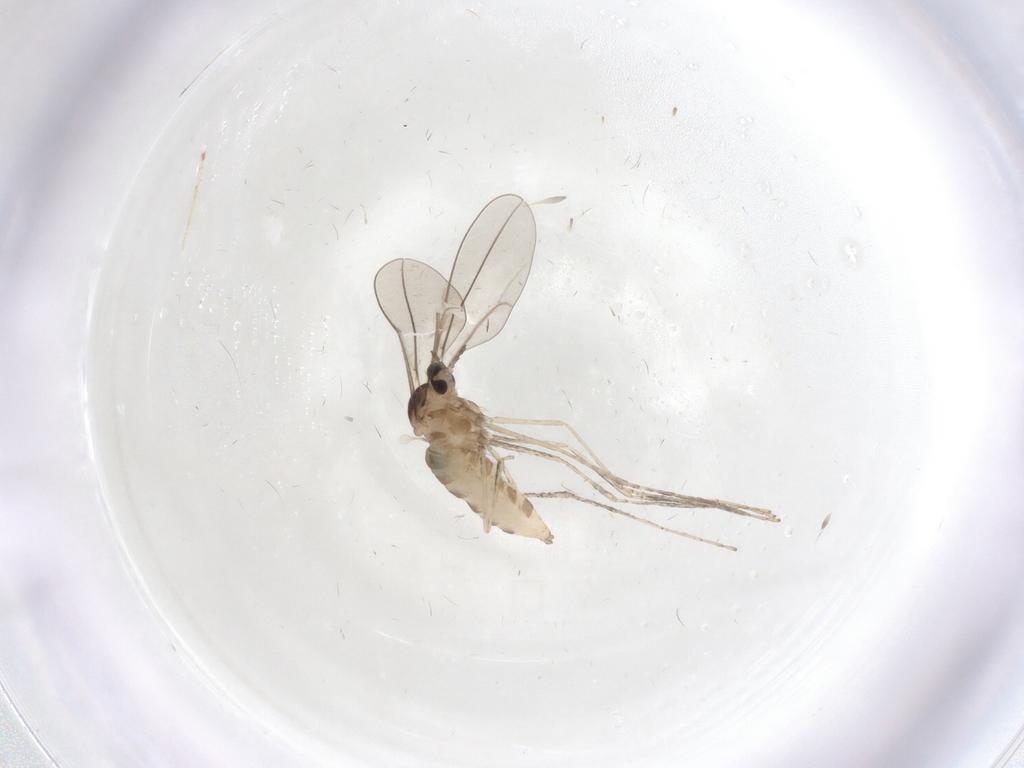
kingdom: Animalia
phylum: Arthropoda
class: Insecta
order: Diptera
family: Cecidomyiidae
